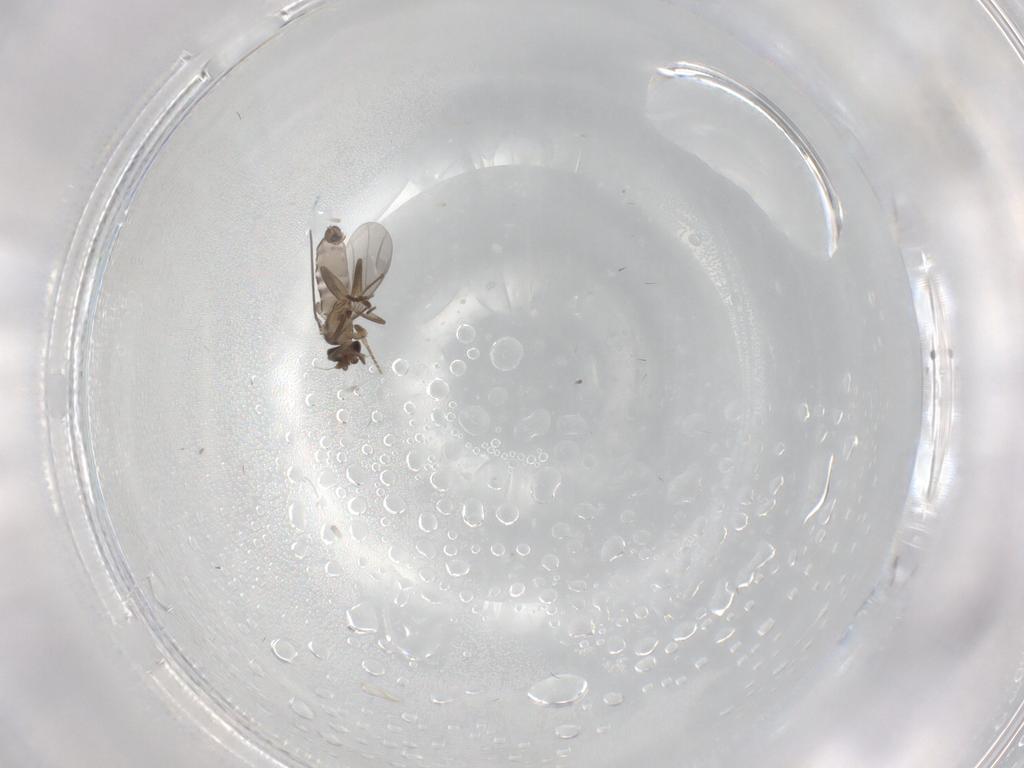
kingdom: Animalia
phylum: Arthropoda
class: Insecta
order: Diptera
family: Phoridae
